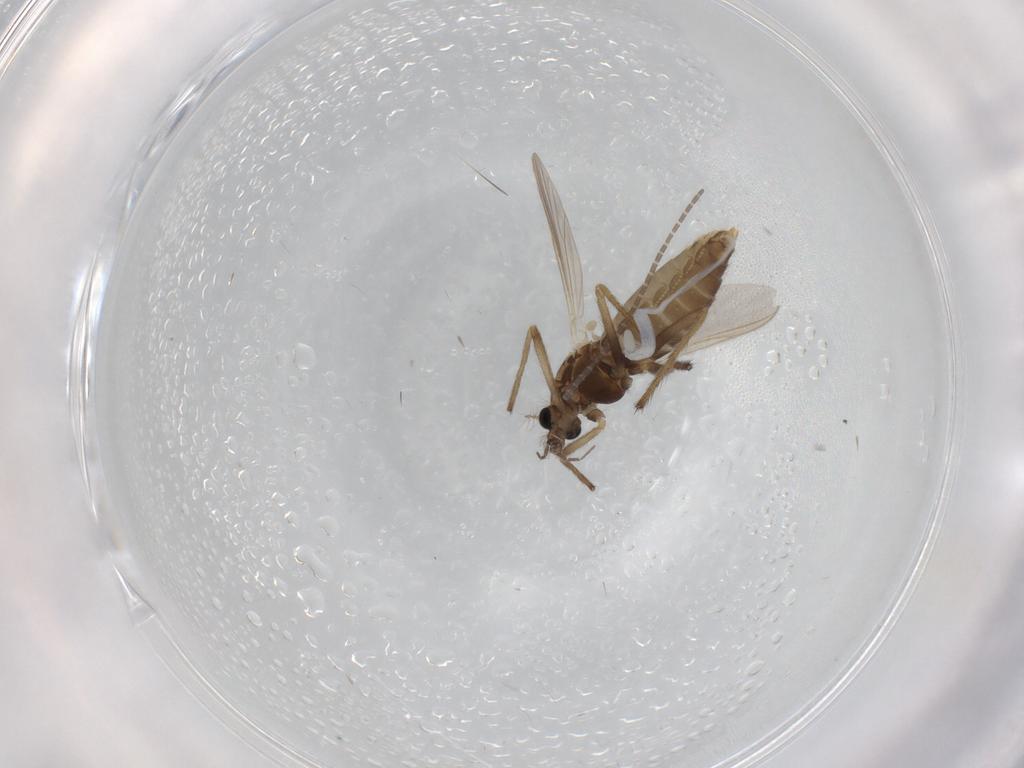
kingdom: Animalia
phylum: Arthropoda
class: Insecta
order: Diptera
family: Chironomidae
